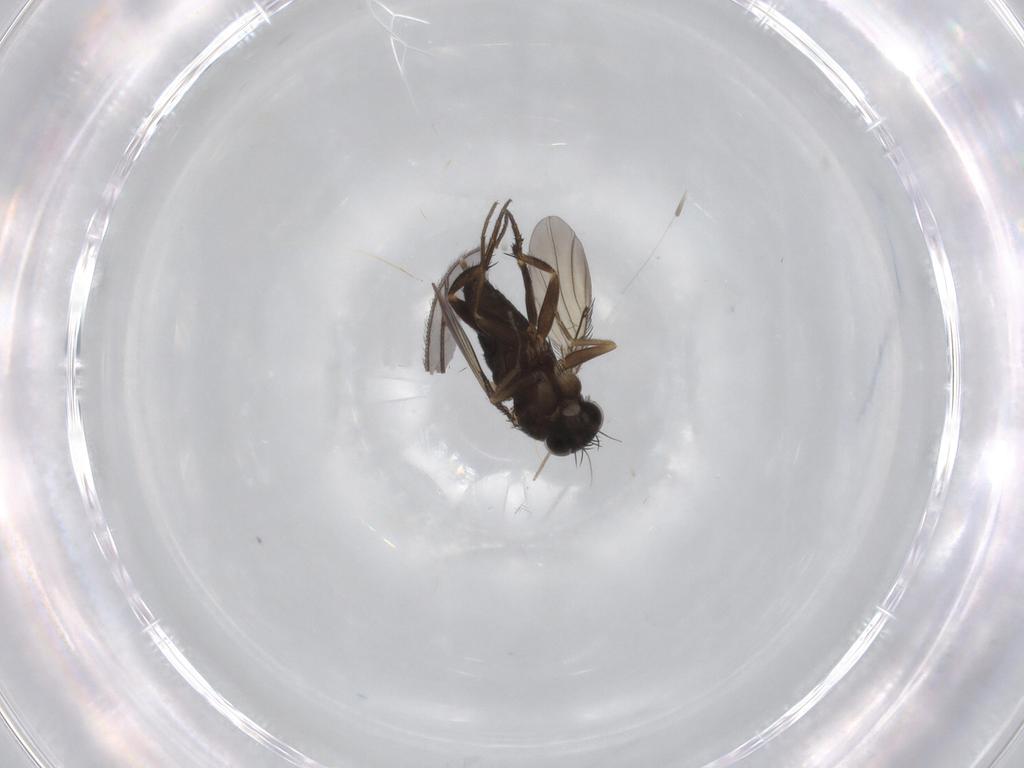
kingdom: Animalia
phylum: Arthropoda
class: Insecta
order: Diptera
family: Phoridae
